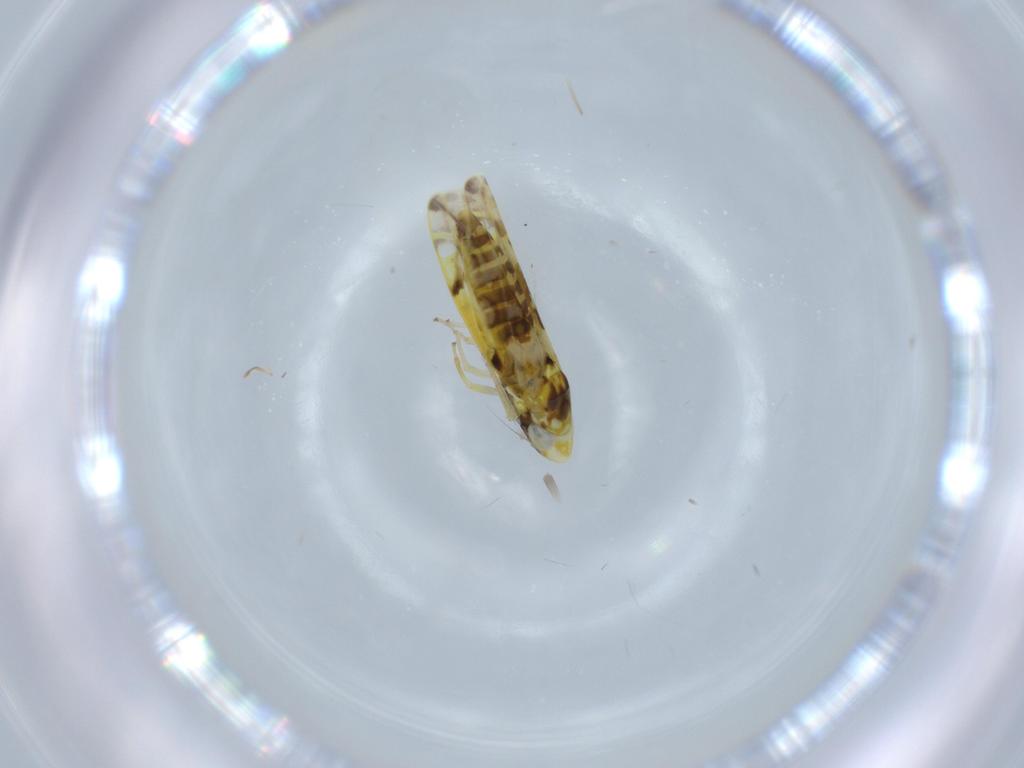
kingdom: Animalia
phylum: Arthropoda
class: Insecta
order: Hemiptera
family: Cicadellidae
